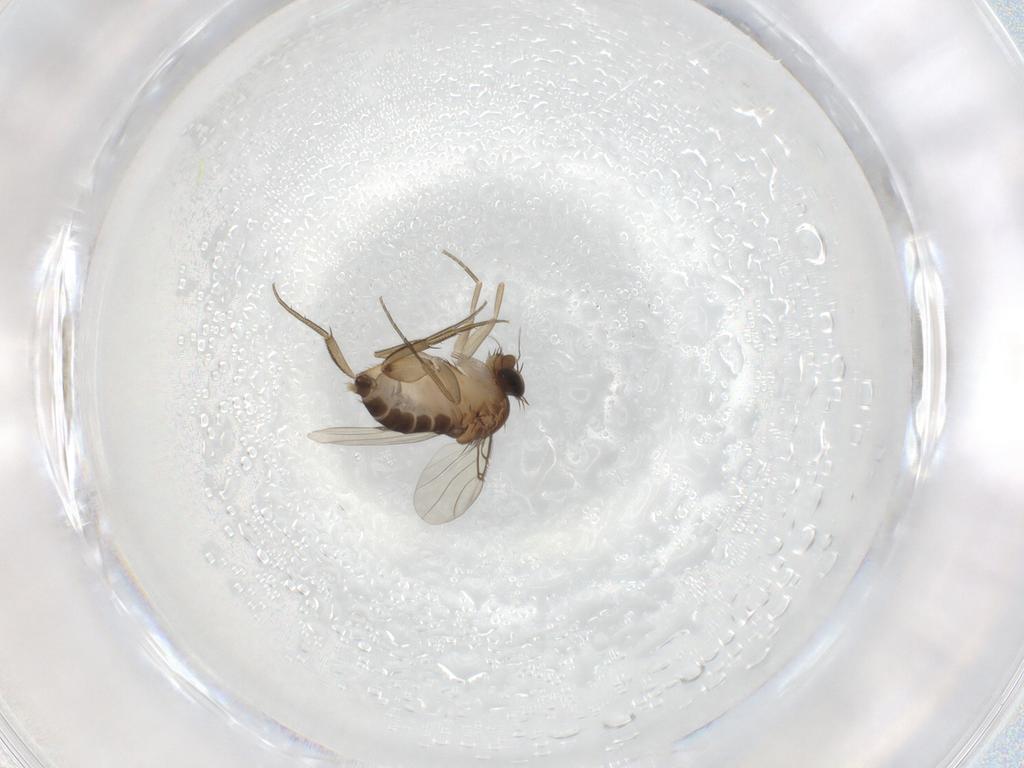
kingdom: Animalia
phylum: Arthropoda
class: Insecta
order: Diptera
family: Phoridae
